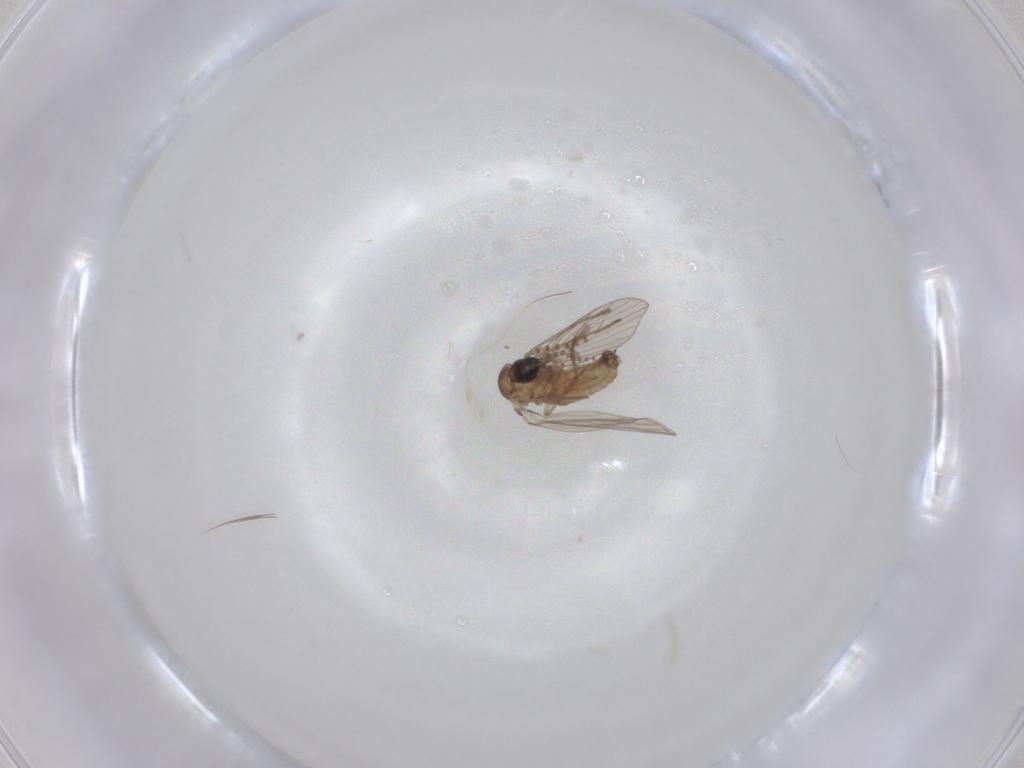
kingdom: Animalia
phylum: Arthropoda
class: Insecta
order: Diptera
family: Psychodidae
